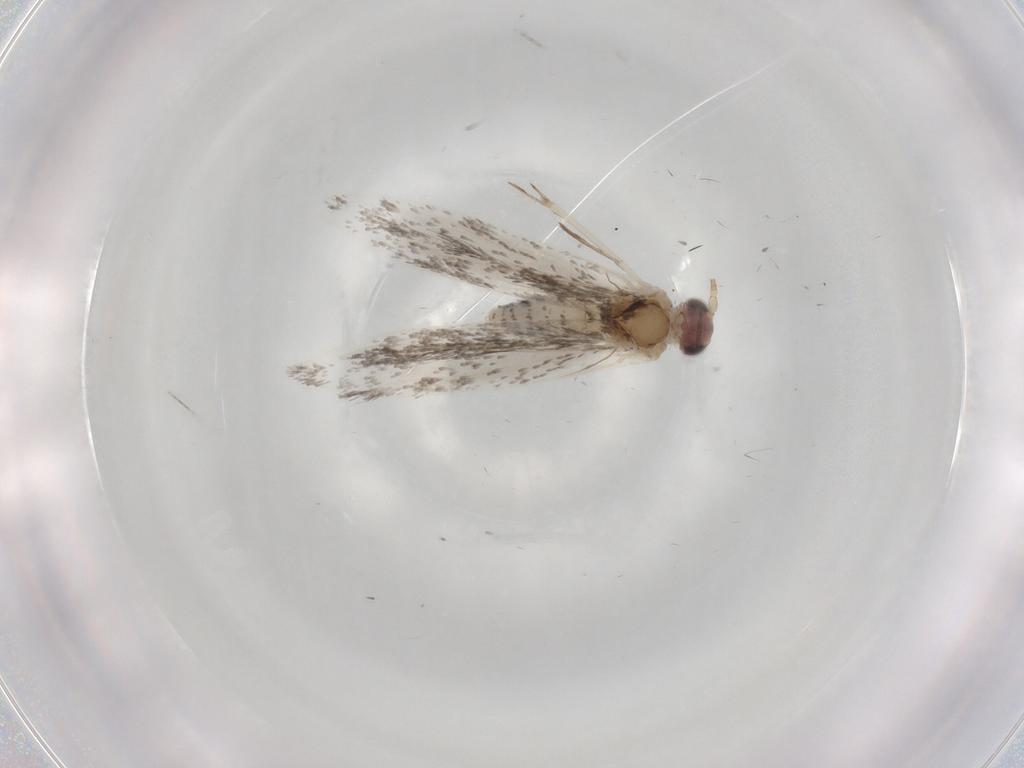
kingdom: Animalia
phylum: Arthropoda
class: Insecta
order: Lepidoptera
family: Tineidae
